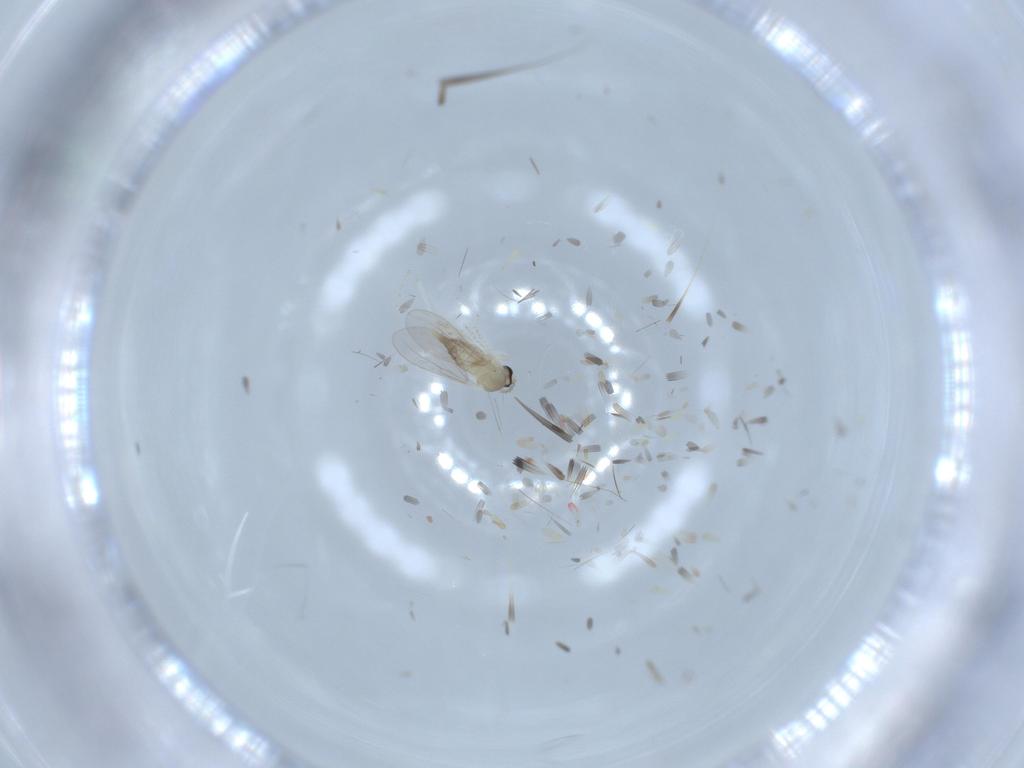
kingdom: Animalia
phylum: Arthropoda
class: Insecta
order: Diptera
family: Cecidomyiidae
